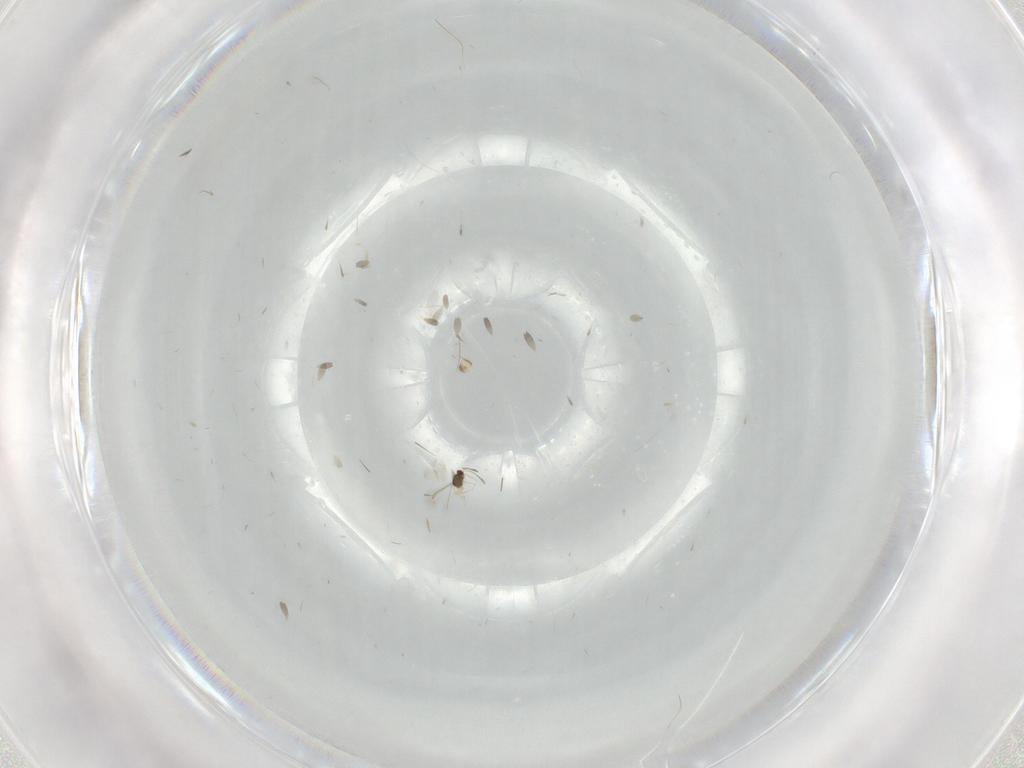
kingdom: Animalia
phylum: Arthropoda
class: Insecta
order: Hymenoptera
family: Mymaridae
